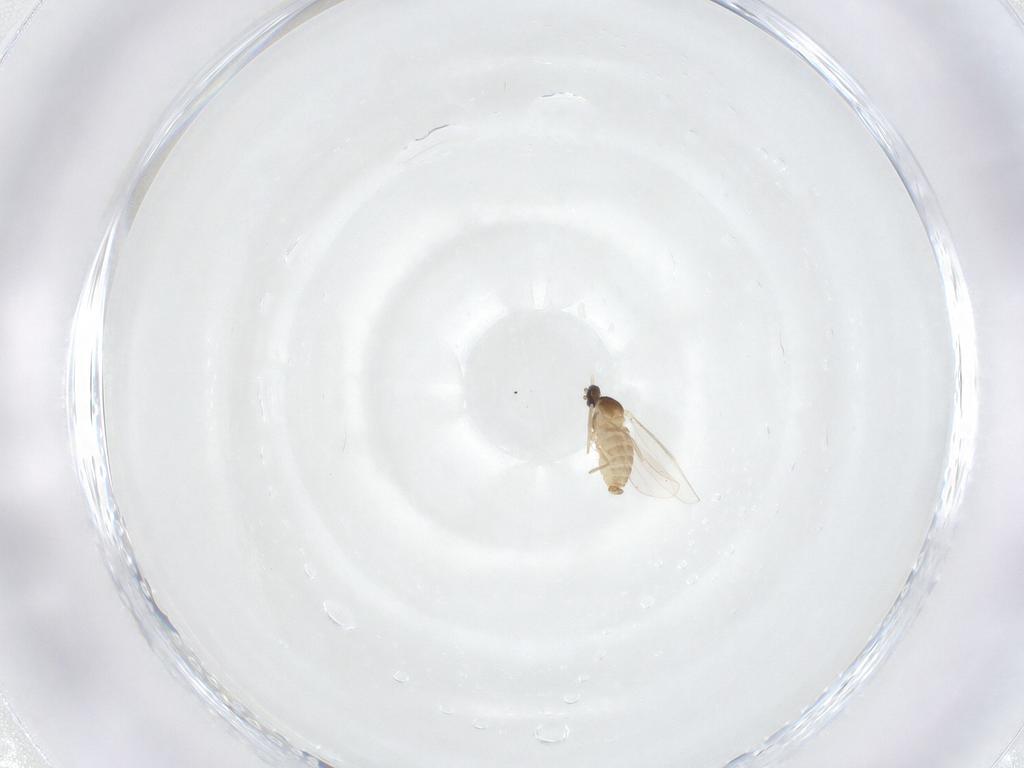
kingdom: Animalia
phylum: Arthropoda
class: Insecta
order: Diptera
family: Cecidomyiidae
